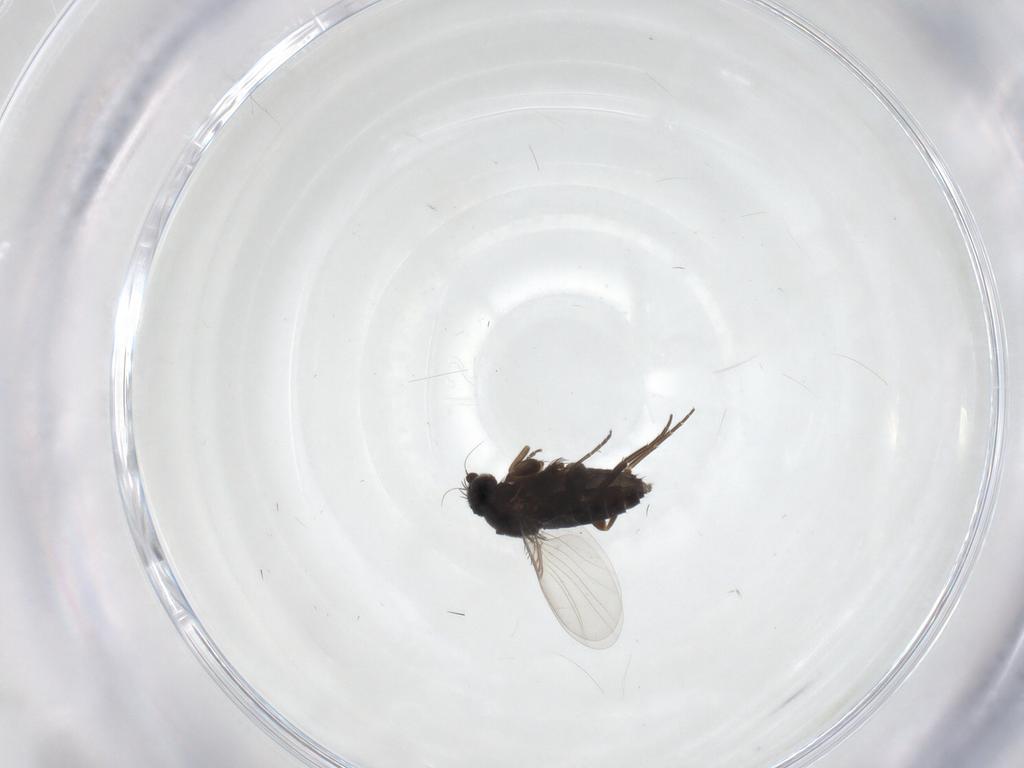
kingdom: Animalia
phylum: Arthropoda
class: Insecta
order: Diptera
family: Phoridae
